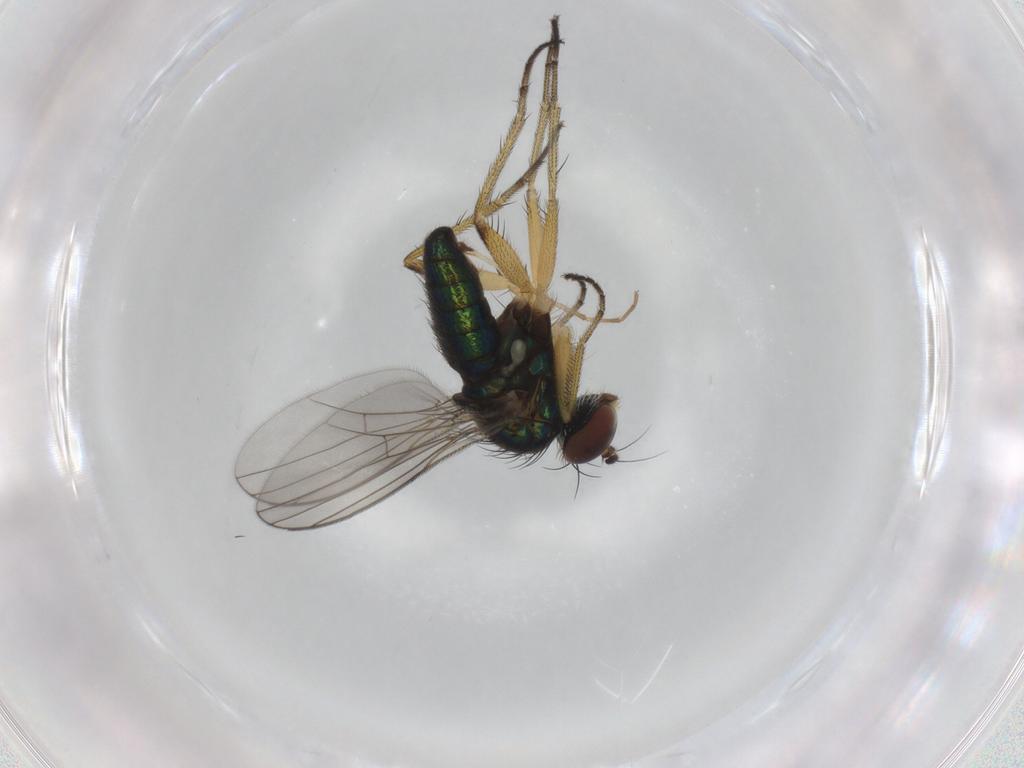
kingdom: Animalia
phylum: Arthropoda
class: Insecta
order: Diptera
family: Dolichopodidae
